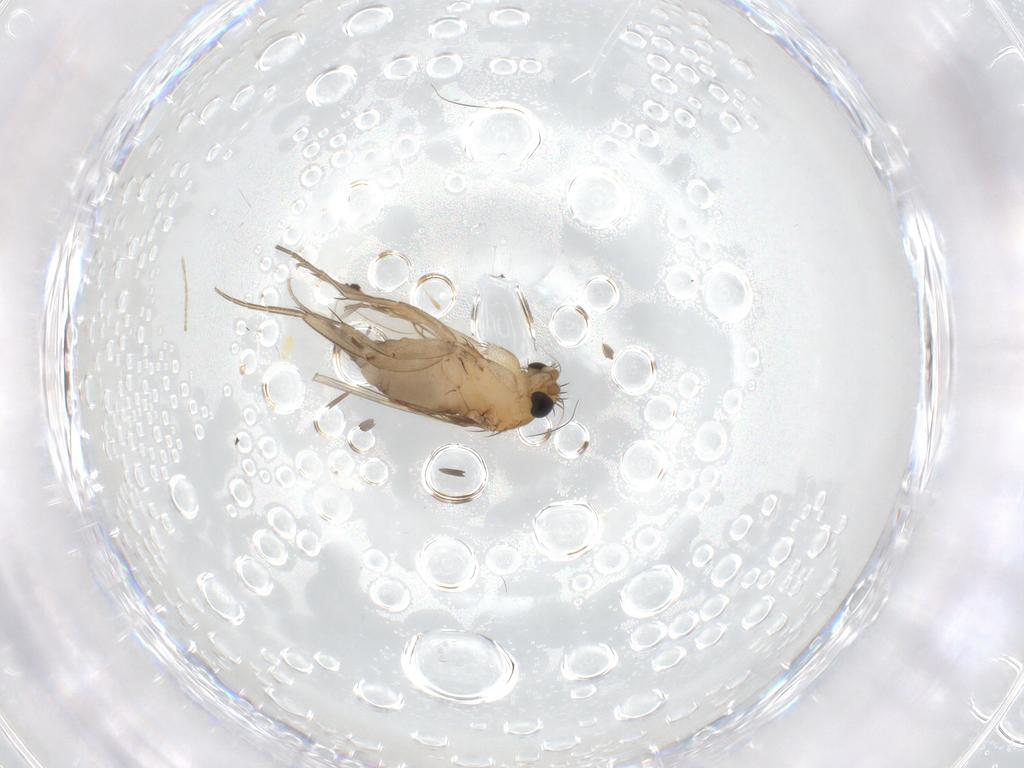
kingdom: Animalia
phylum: Arthropoda
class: Insecta
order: Diptera
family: Phoridae
